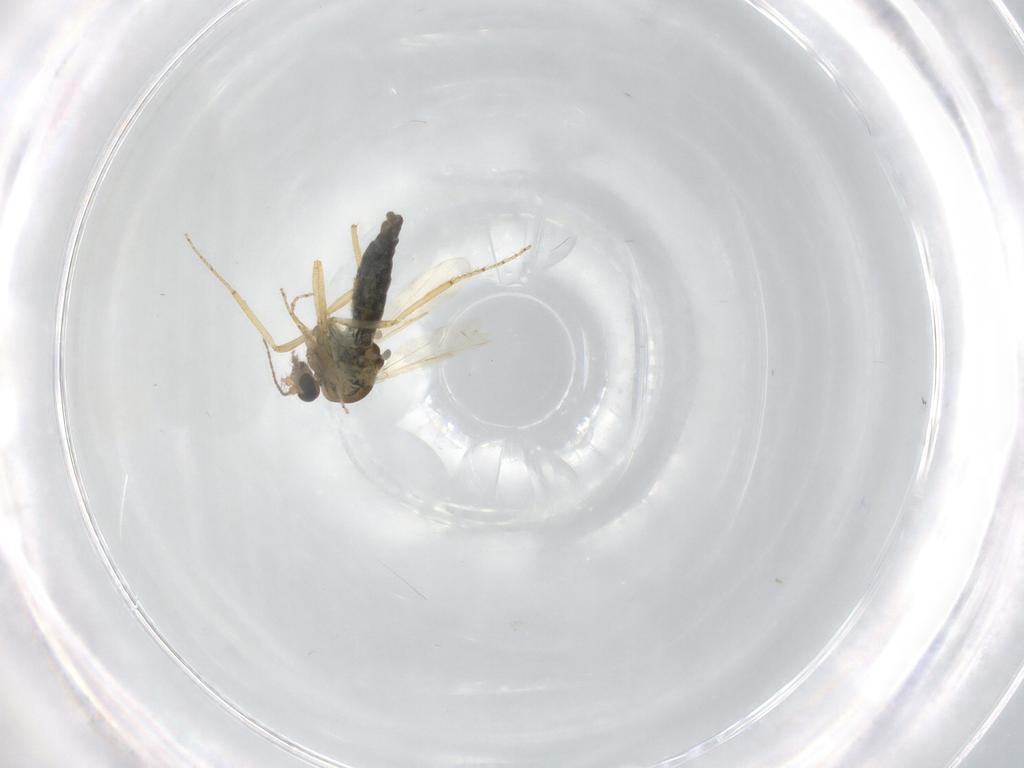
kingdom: Animalia
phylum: Arthropoda
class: Insecta
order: Diptera
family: Ceratopogonidae
